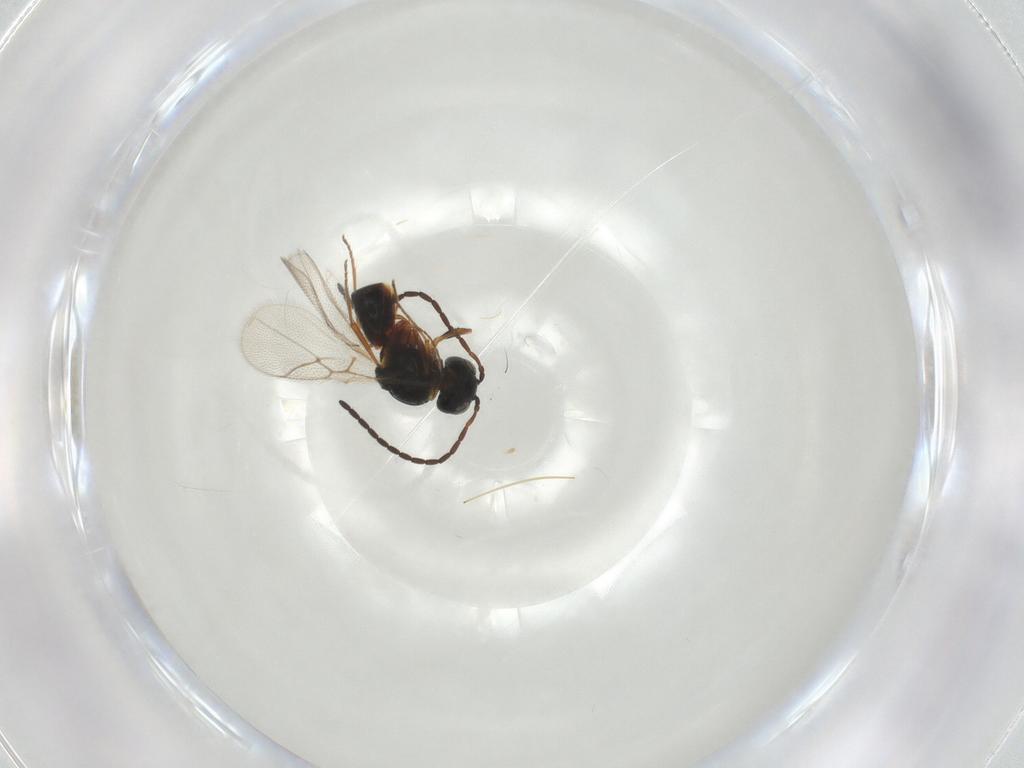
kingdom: Animalia
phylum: Arthropoda
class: Insecta
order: Hymenoptera
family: Figitidae
